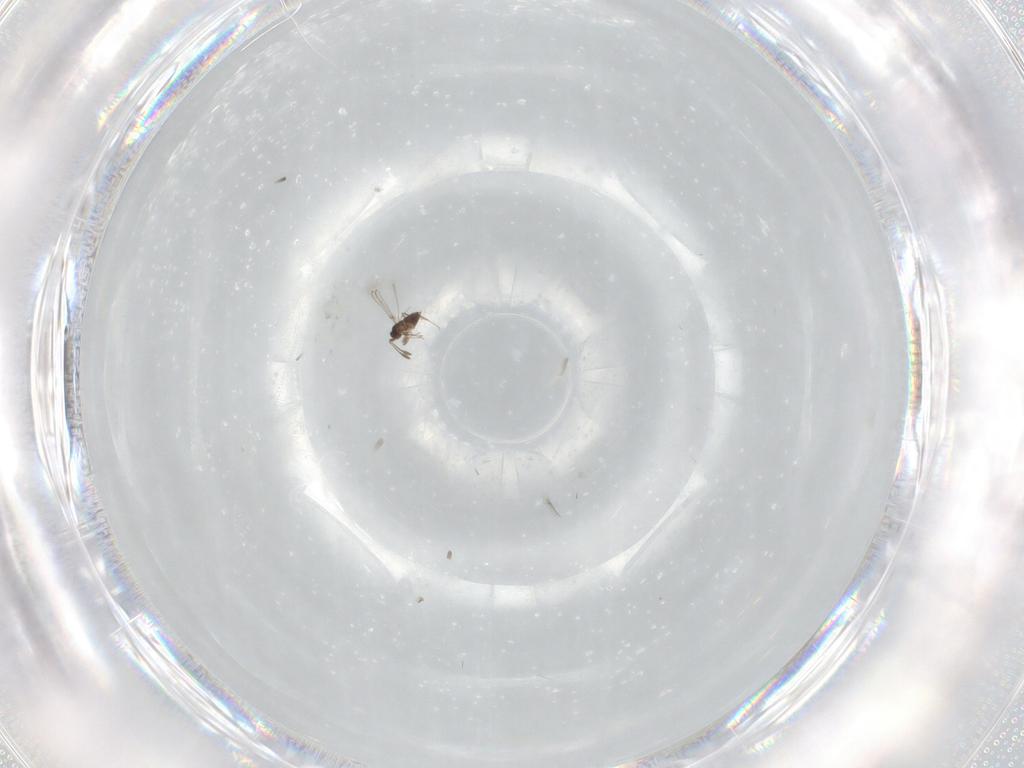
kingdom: Animalia
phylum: Arthropoda
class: Insecta
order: Hymenoptera
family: Mymaridae
